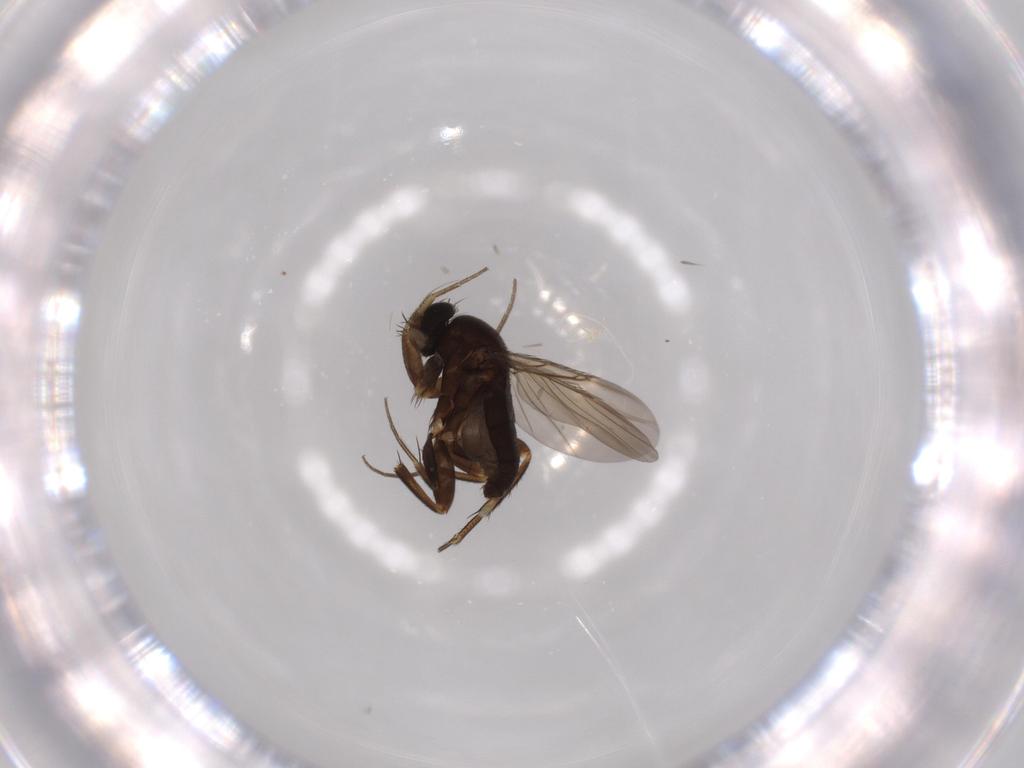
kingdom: Animalia
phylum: Arthropoda
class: Insecta
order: Diptera
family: Phoridae
